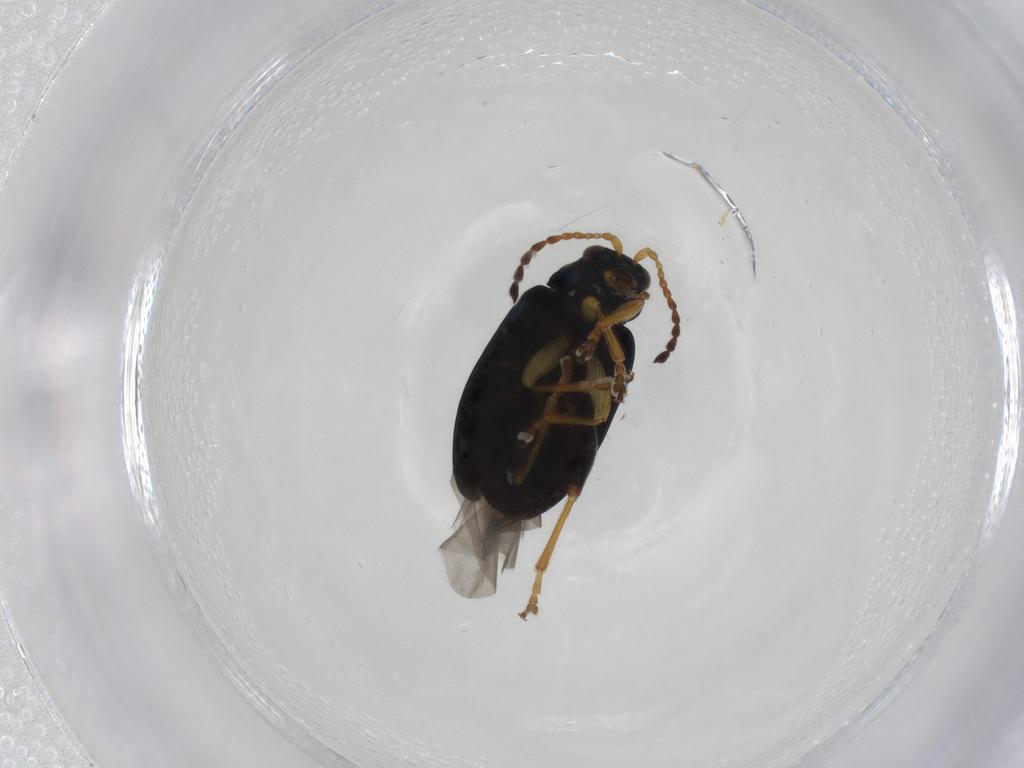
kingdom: Animalia
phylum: Arthropoda
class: Insecta
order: Coleoptera
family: Chrysomelidae
